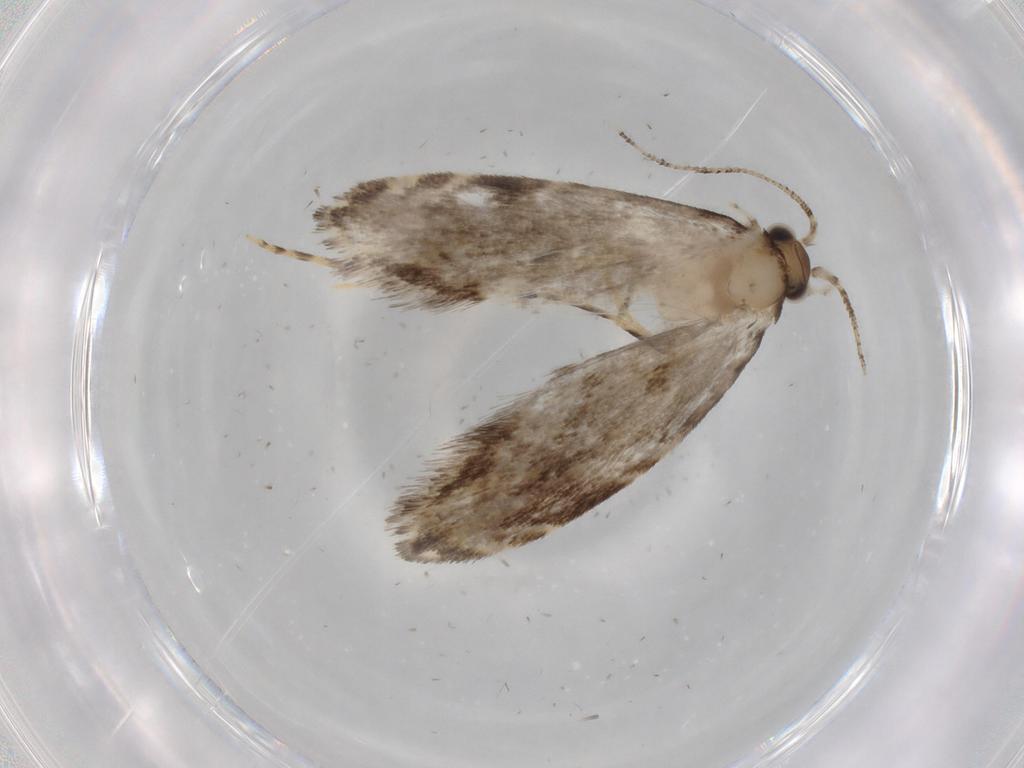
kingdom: Animalia
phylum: Arthropoda
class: Insecta
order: Lepidoptera
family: Tineidae
